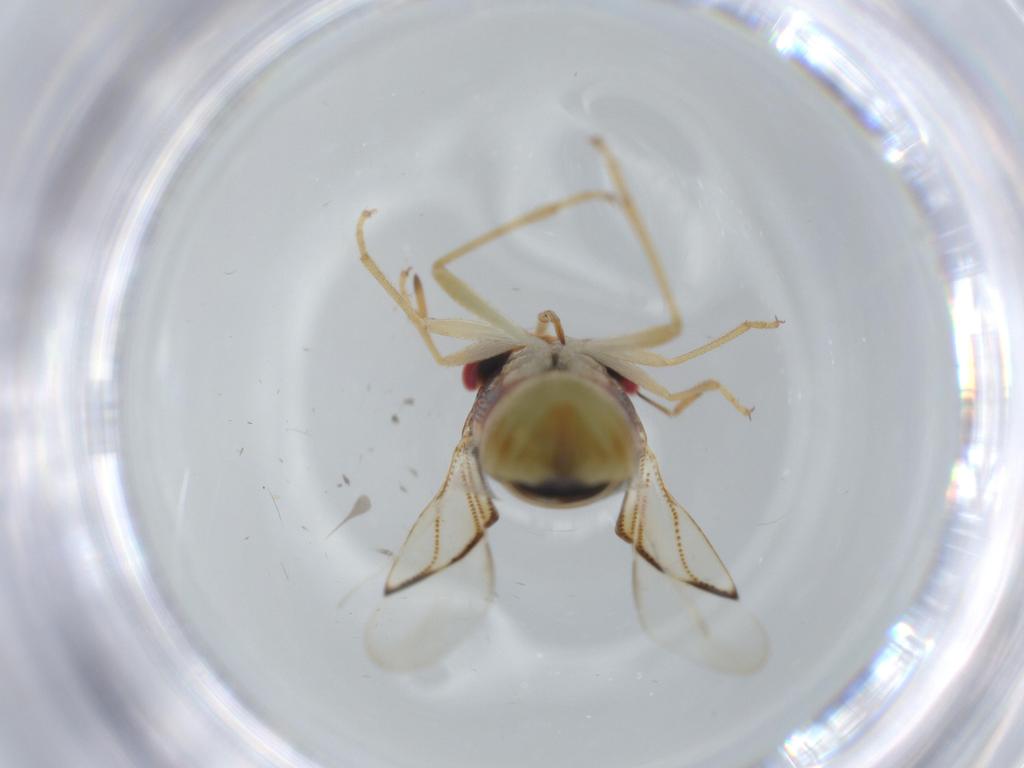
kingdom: Animalia
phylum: Arthropoda
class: Insecta
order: Hemiptera
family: Geocoridae
